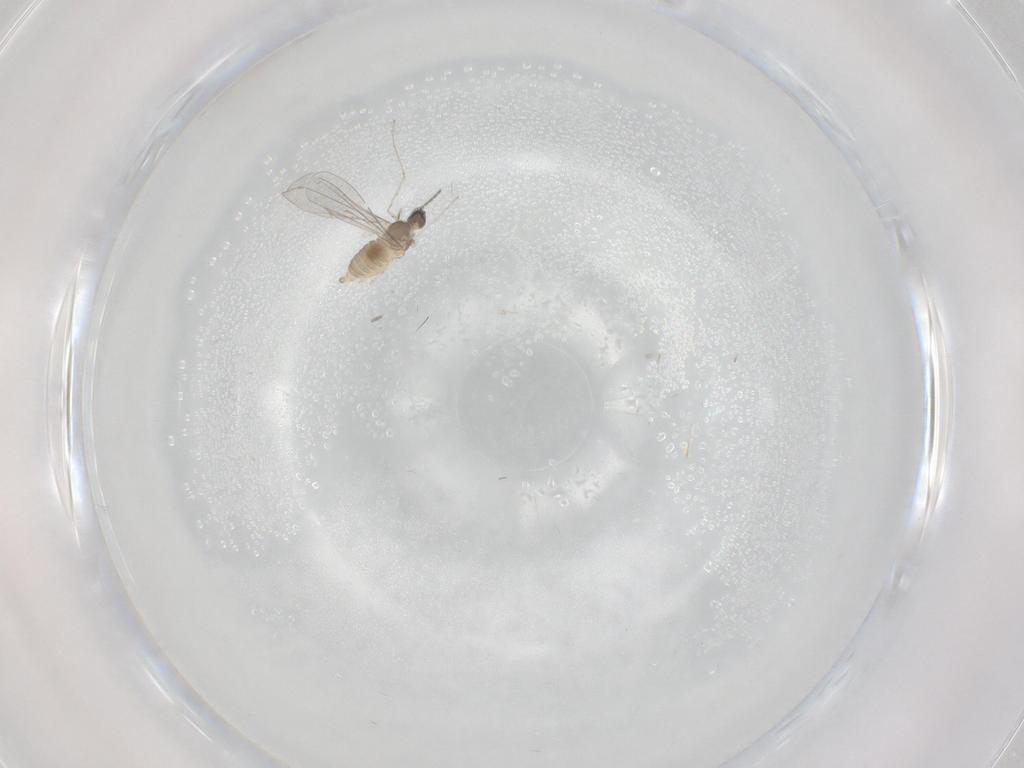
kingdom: Animalia
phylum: Arthropoda
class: Insecta
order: Diptera
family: Cecidomyiidae
